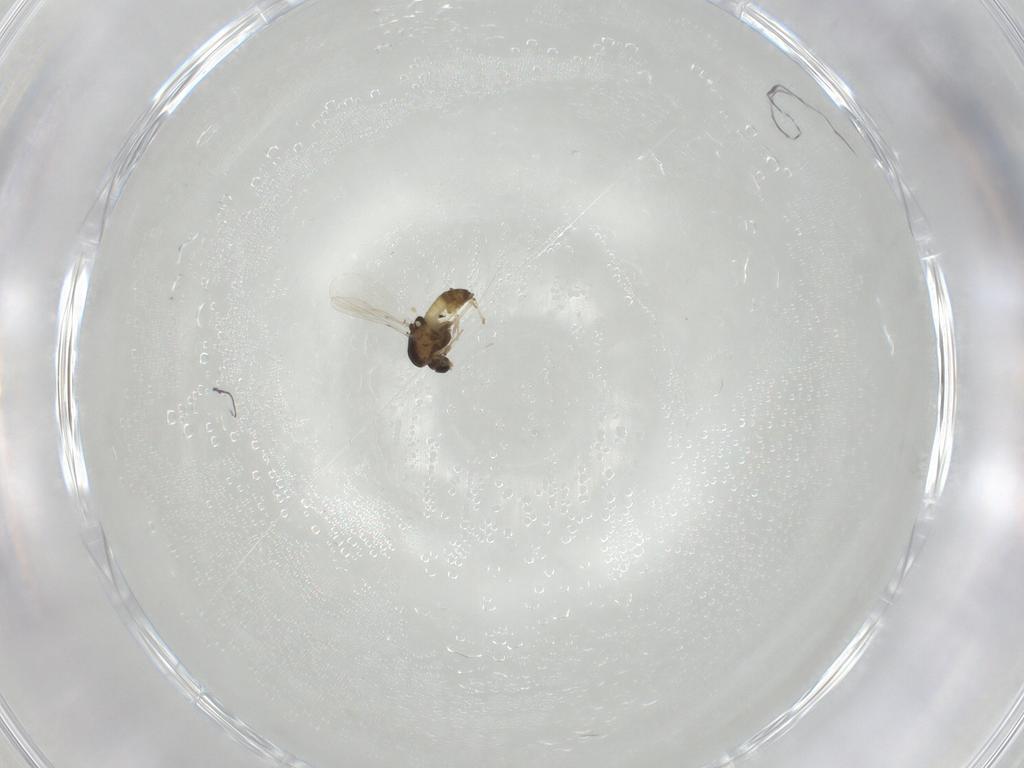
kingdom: Animalia
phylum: Arthropoda
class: Insecta
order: Diptera
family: Chironomidae
